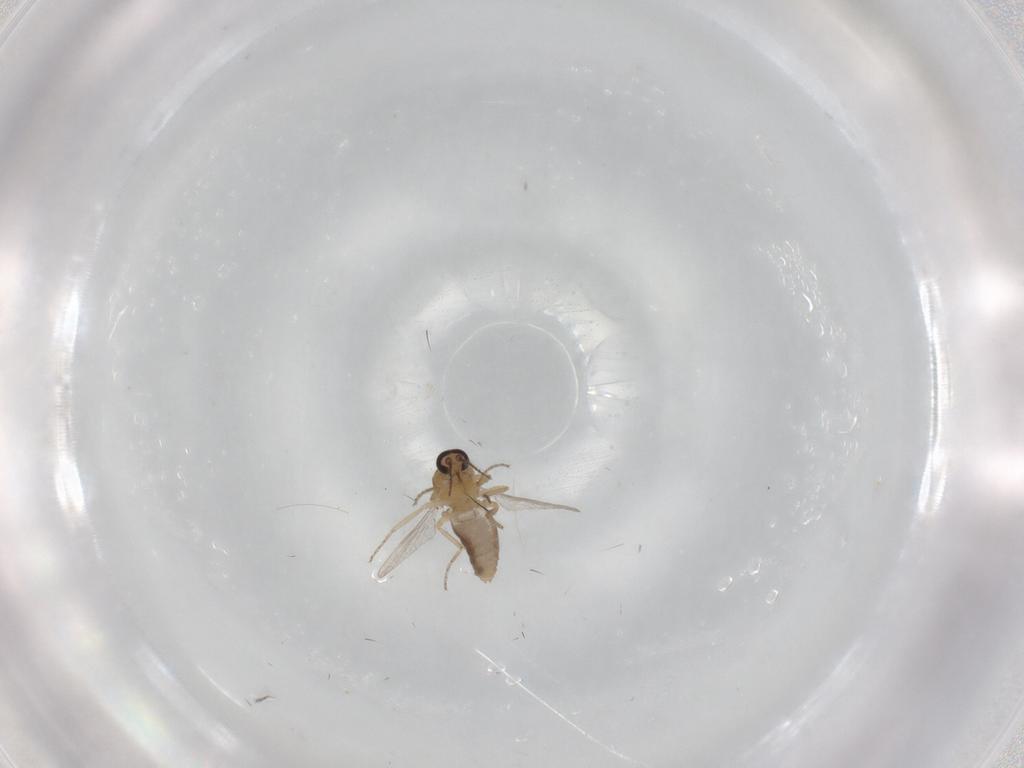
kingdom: Animalia
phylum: Arthropoda
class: Insecta
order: Diptera
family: Ceratopogonidae
